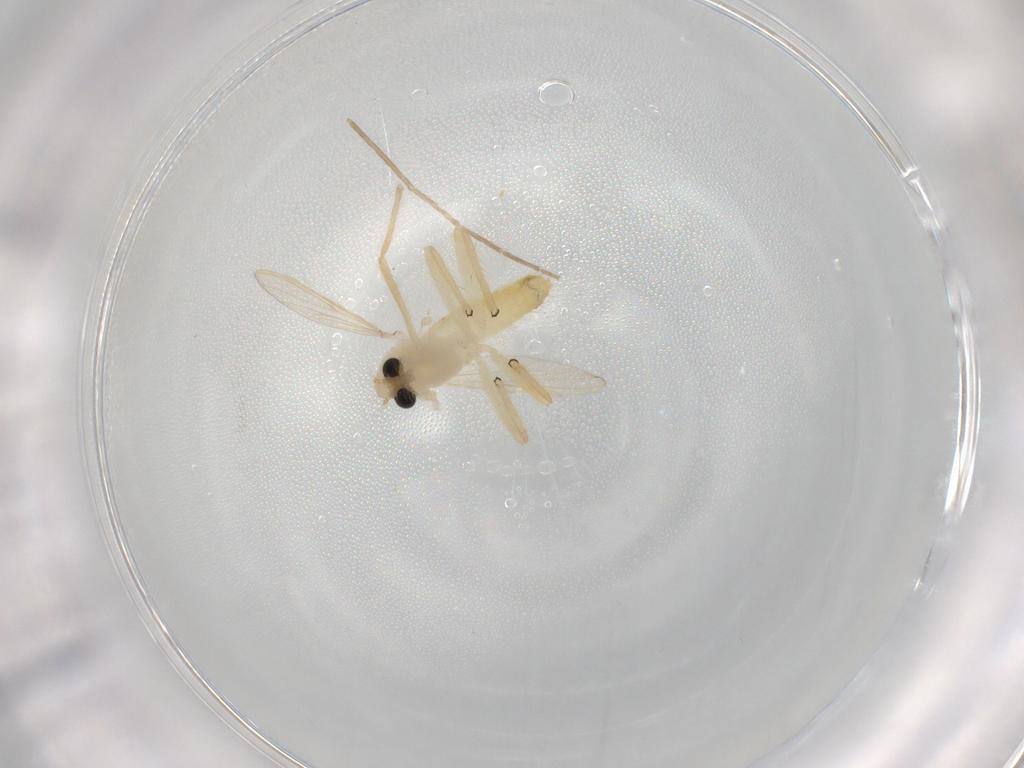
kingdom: Animalia
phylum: Arthropoda
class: Insecta
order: Diptera
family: Chironomidae
